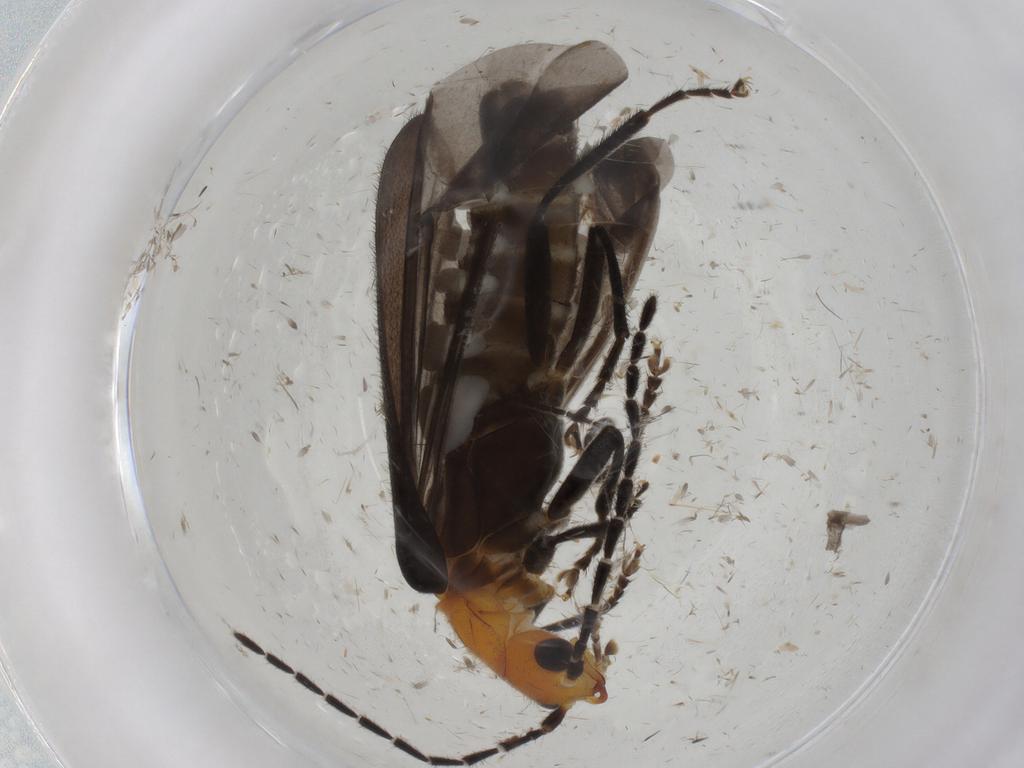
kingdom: Animalia
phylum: Arthropoda
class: Insecta
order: Coleoptera
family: Cantharidae
